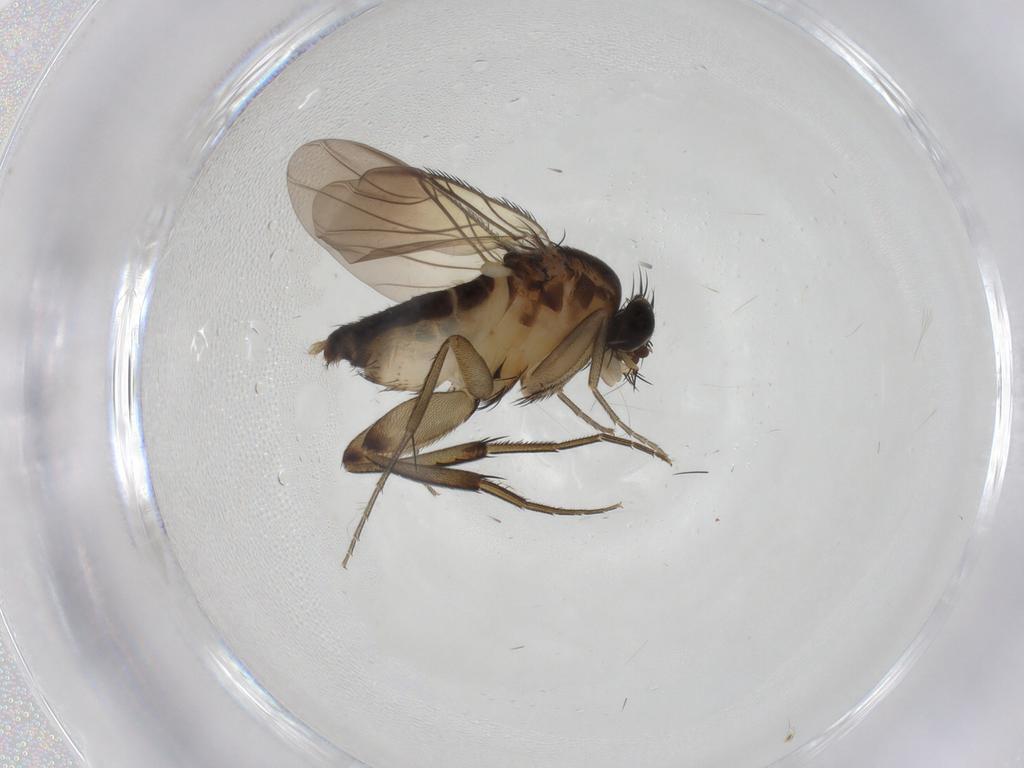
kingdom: Animalia
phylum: Arthropoda
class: Insecta
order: Diptera
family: Phoridae
